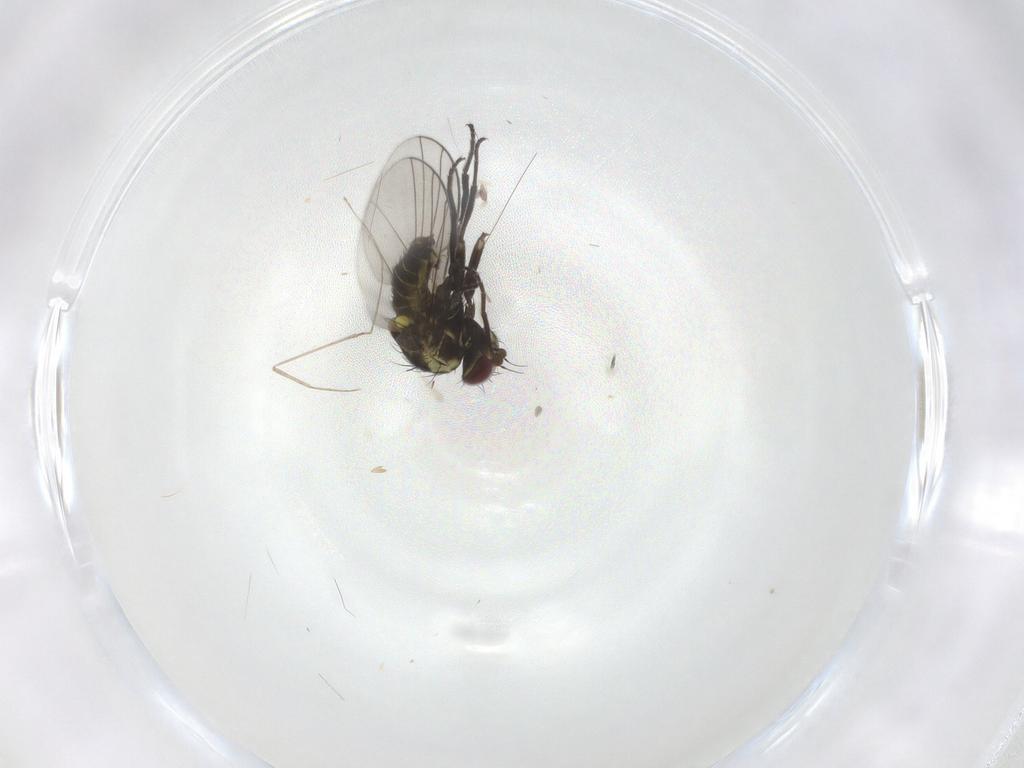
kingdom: Animalia
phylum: Arthropoda
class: Insecta
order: Diptera
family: Agromyzidae
